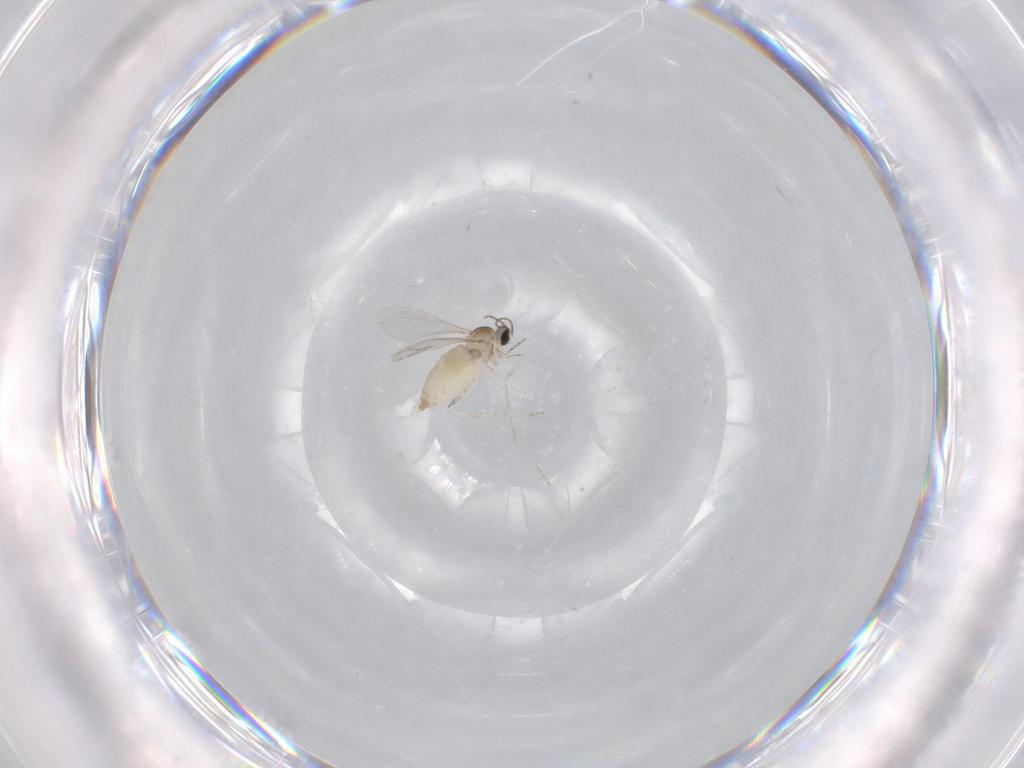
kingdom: Animalia
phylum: Arthropoda
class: Insecta
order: Diptera
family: Cecidomyiidae
